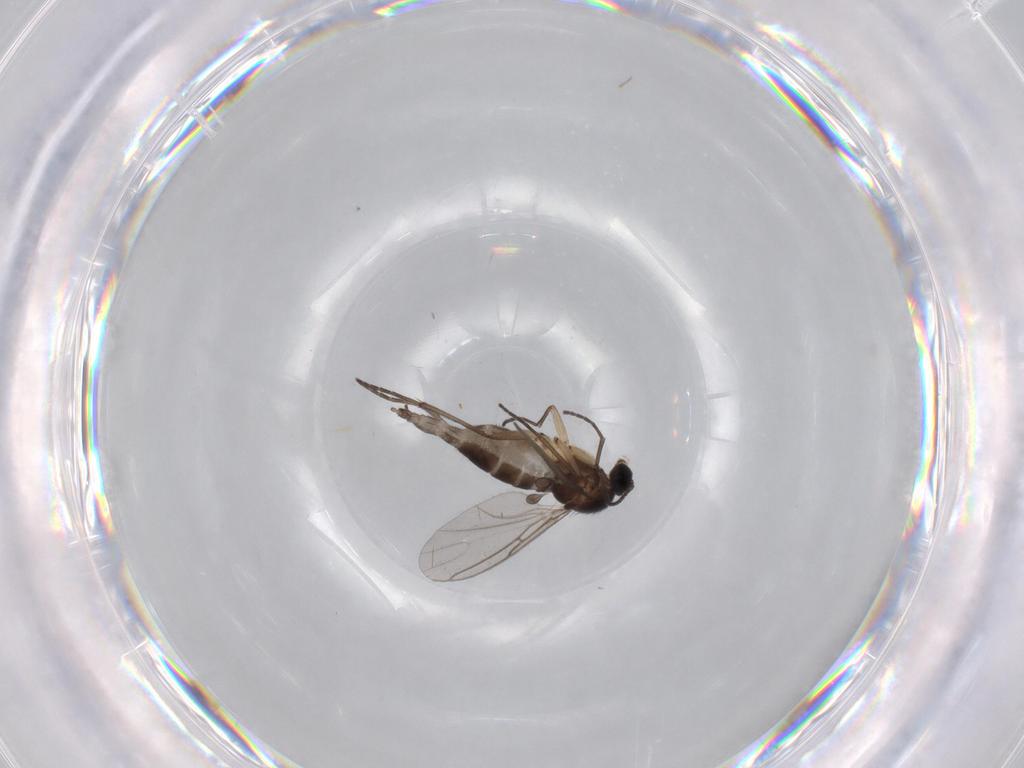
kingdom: Animalia
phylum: Arthropoda
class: Insecta
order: Diptera
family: Sciaridae
